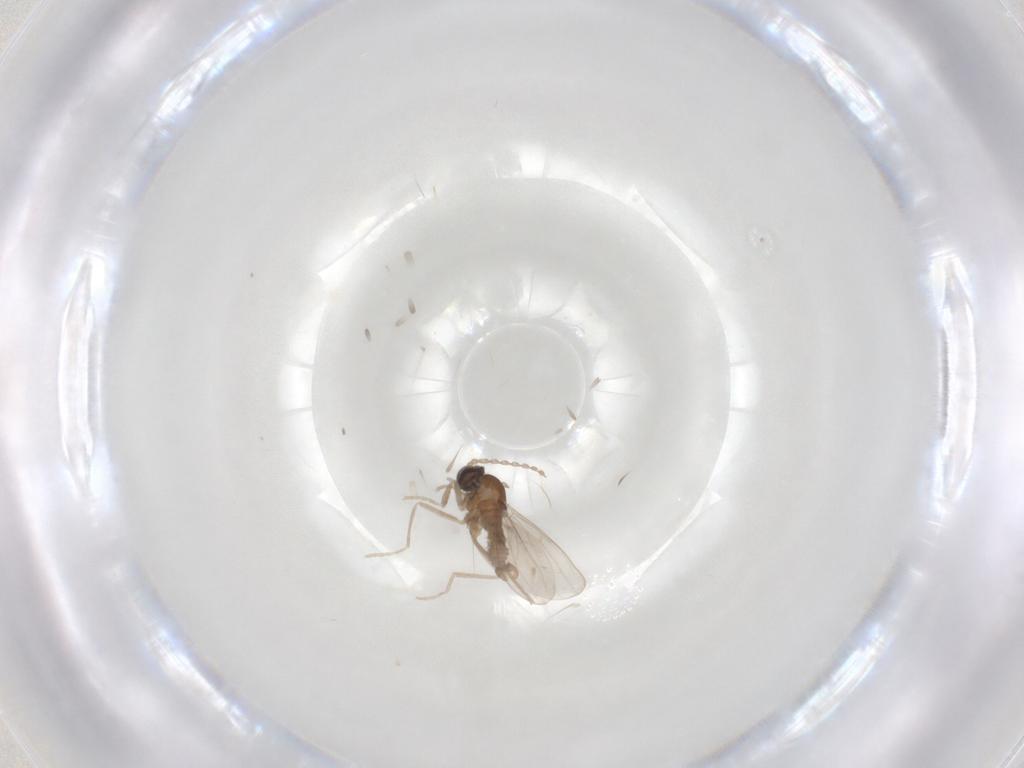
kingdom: Animalia
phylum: Arthropoda
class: Insecta
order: Diptera
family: Cecidomyiidae
